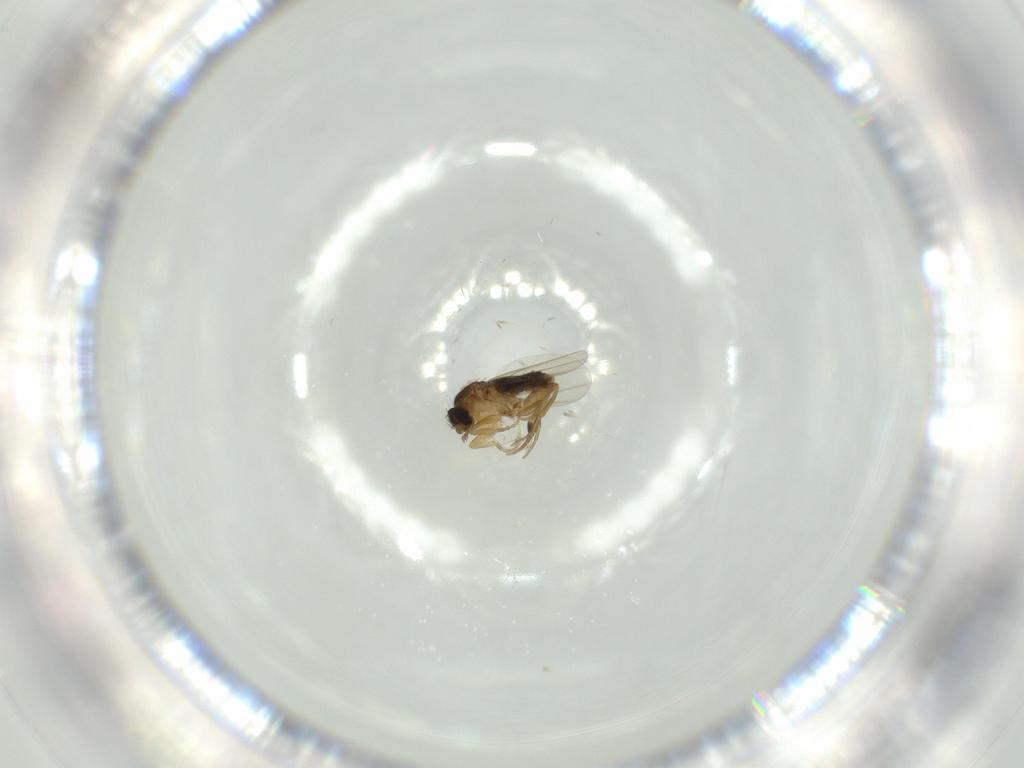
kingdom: Animalia
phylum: Arthropoda
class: Insecta
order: Diptera
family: Phoridae
